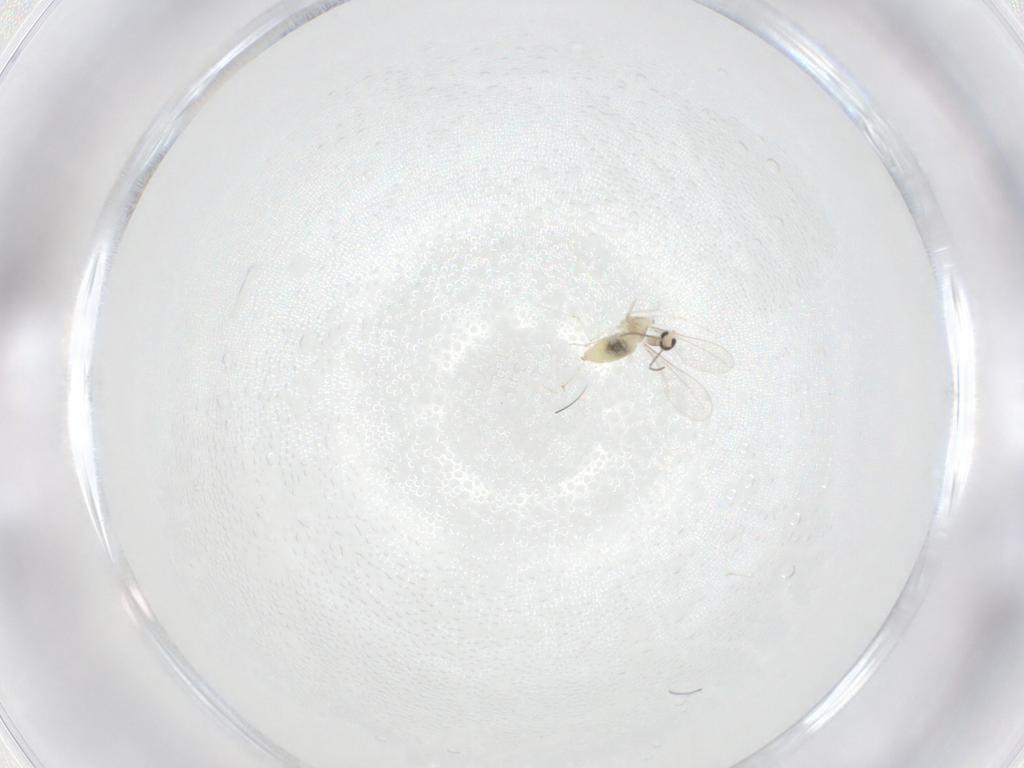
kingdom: Animalia
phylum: Arthropoda
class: Insecta
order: Diptera
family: Cecidomyiidae
